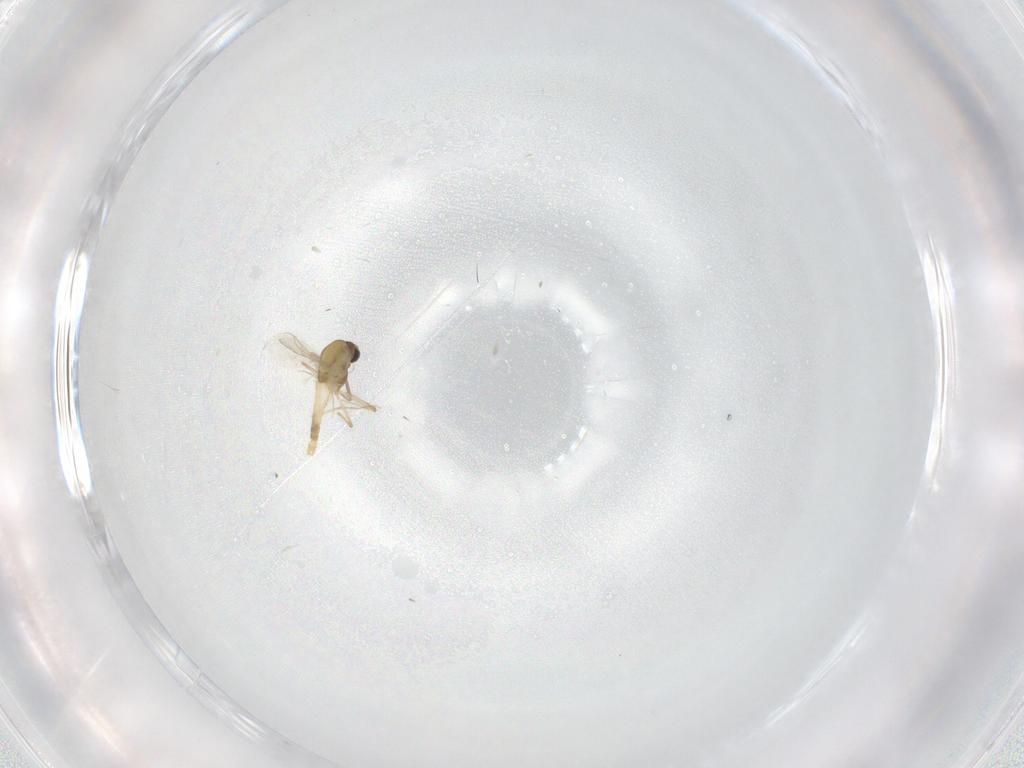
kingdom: Animalia
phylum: Arthropoda
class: Insecta
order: Diptera
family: Chironomidae
